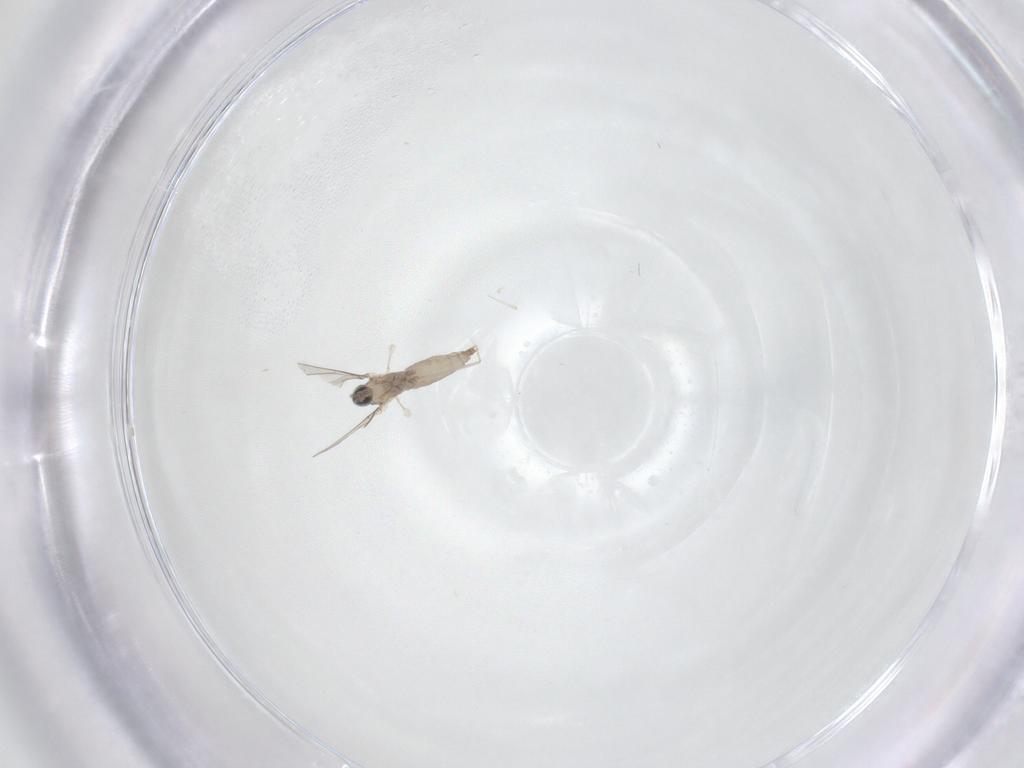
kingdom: Animalia
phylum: Arthropoda
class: Insecta
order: Diptera
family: Cecidomyiidae
